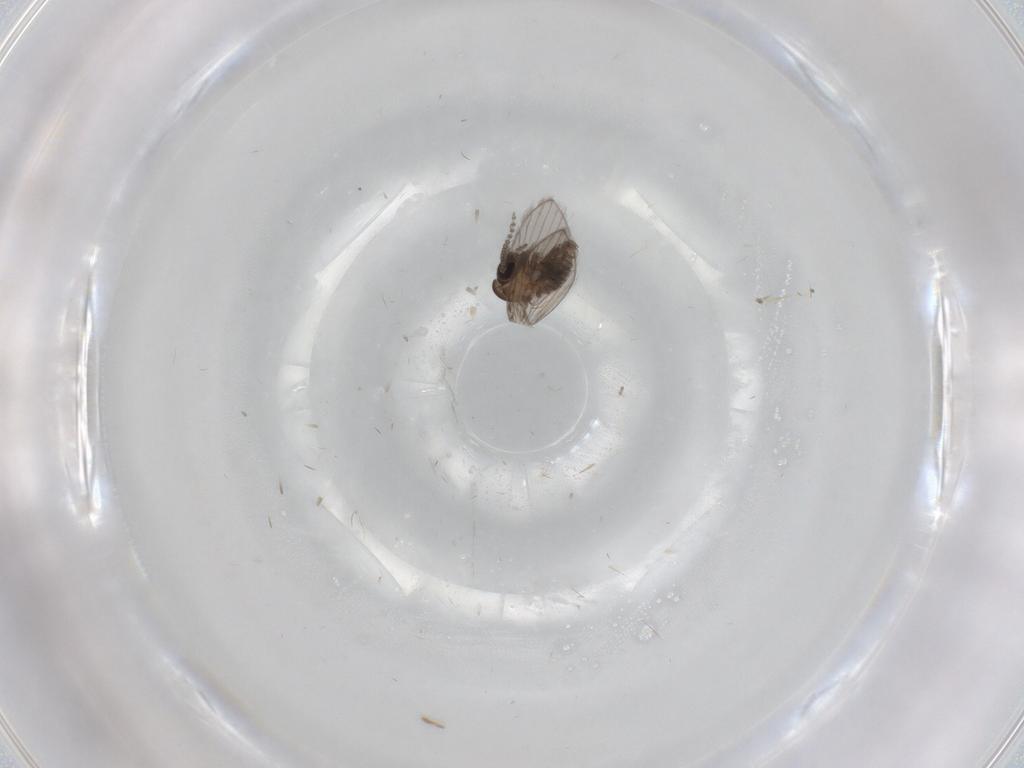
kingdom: Animalia
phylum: Arthropoda
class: Insecta
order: Diptera
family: Psychodidae
